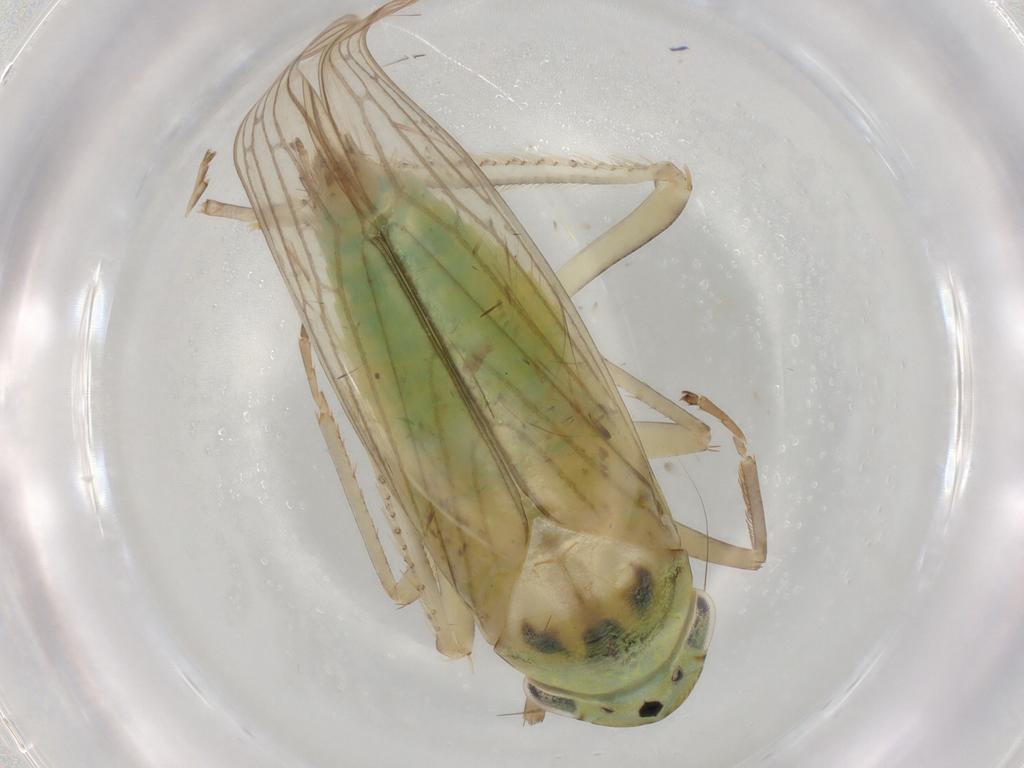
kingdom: Animalia
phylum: Arthropoda
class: Insecta
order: Hemiptera
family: Cicadellidae
